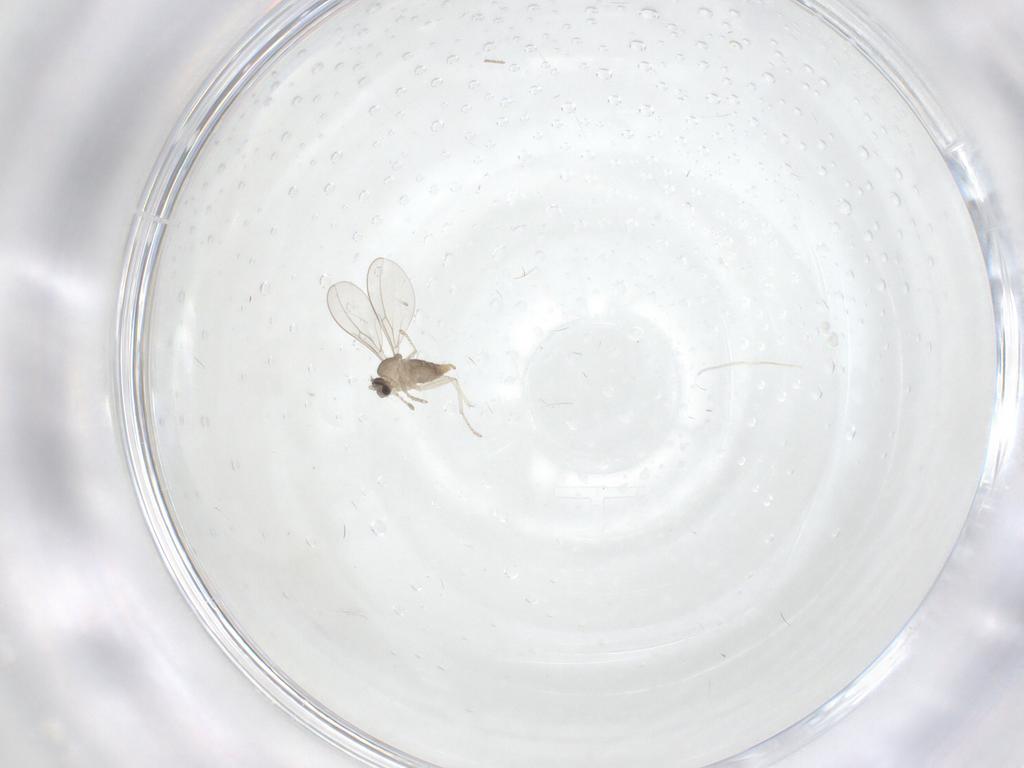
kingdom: Animalia
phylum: Arthropoda
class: Insecta
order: Diptera
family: Cecidomyiidae
